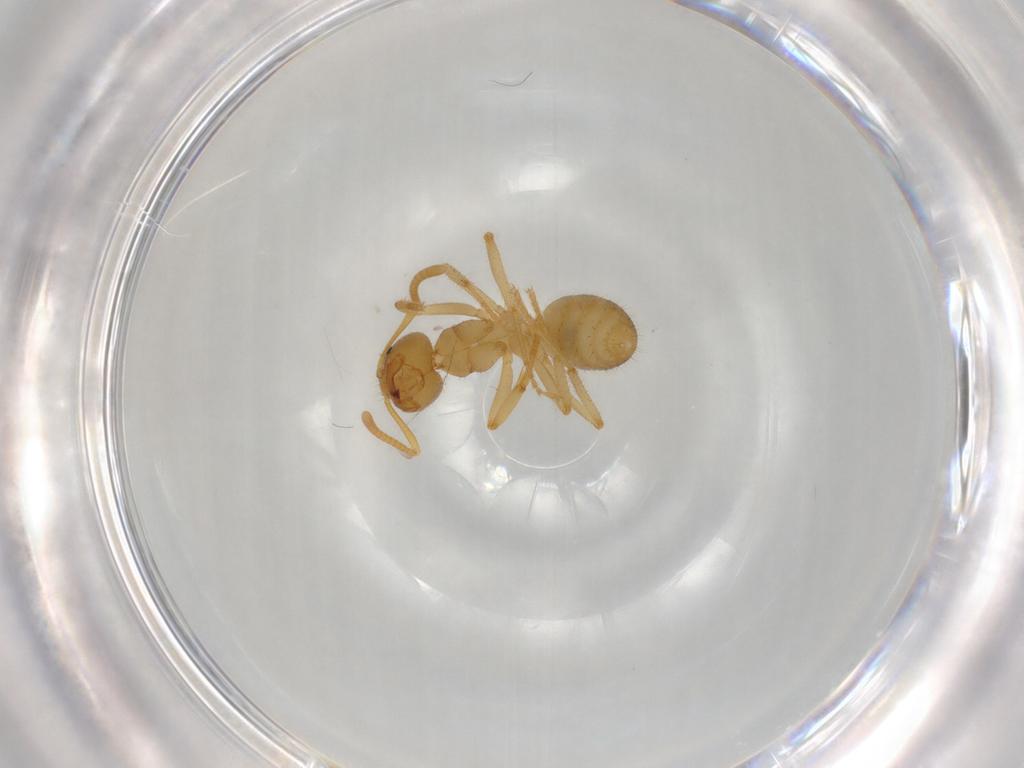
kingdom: Animalia
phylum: Arthropoda
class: Insecta
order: Hymenoptera
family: Formicidae
